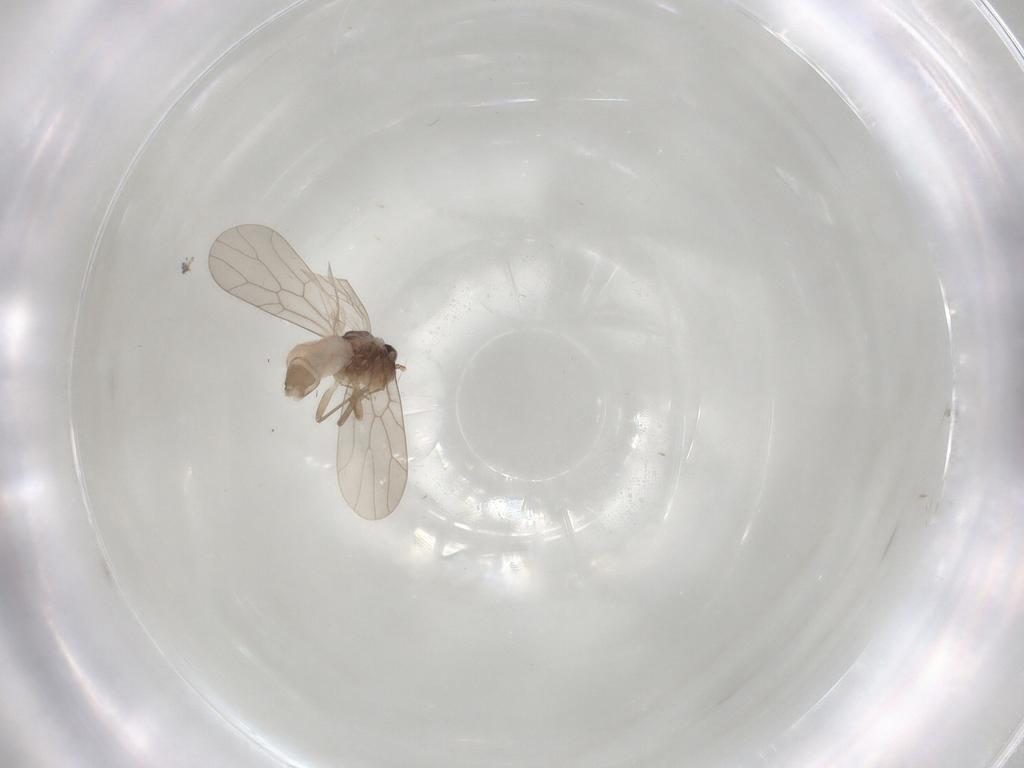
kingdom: Animalia
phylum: Arthropoda
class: Insecta
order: Psocodea
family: Lepidopsocidae
